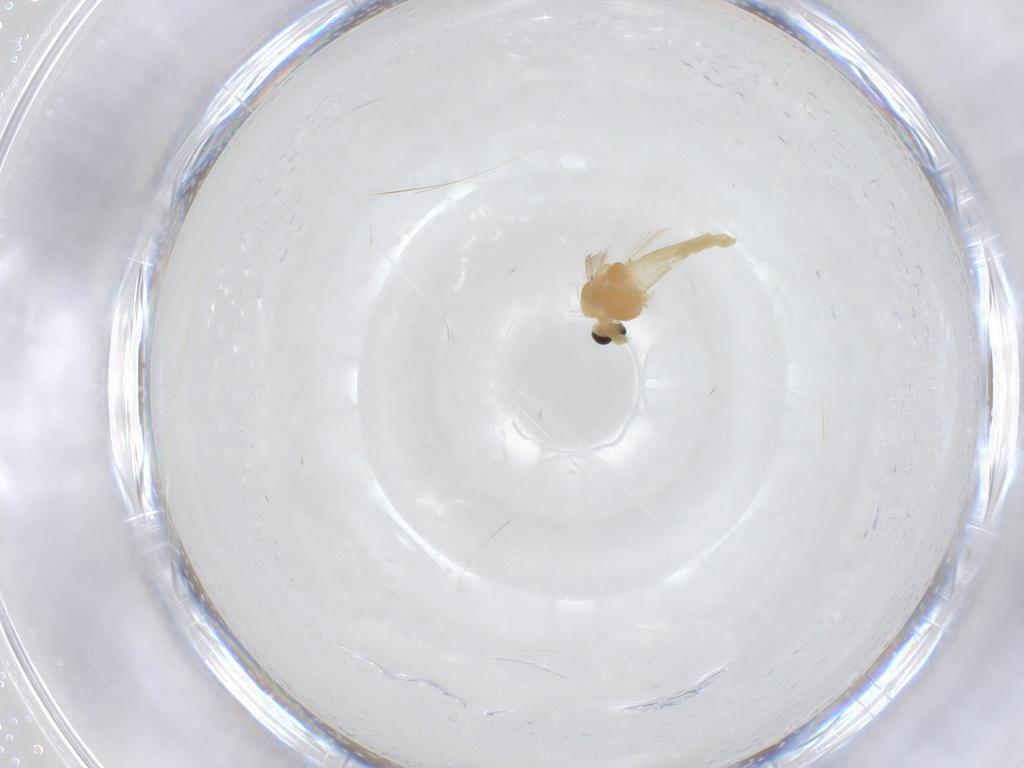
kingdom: Animalia
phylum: Arthropoda
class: Insecta
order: Diptera
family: Chironomidae
